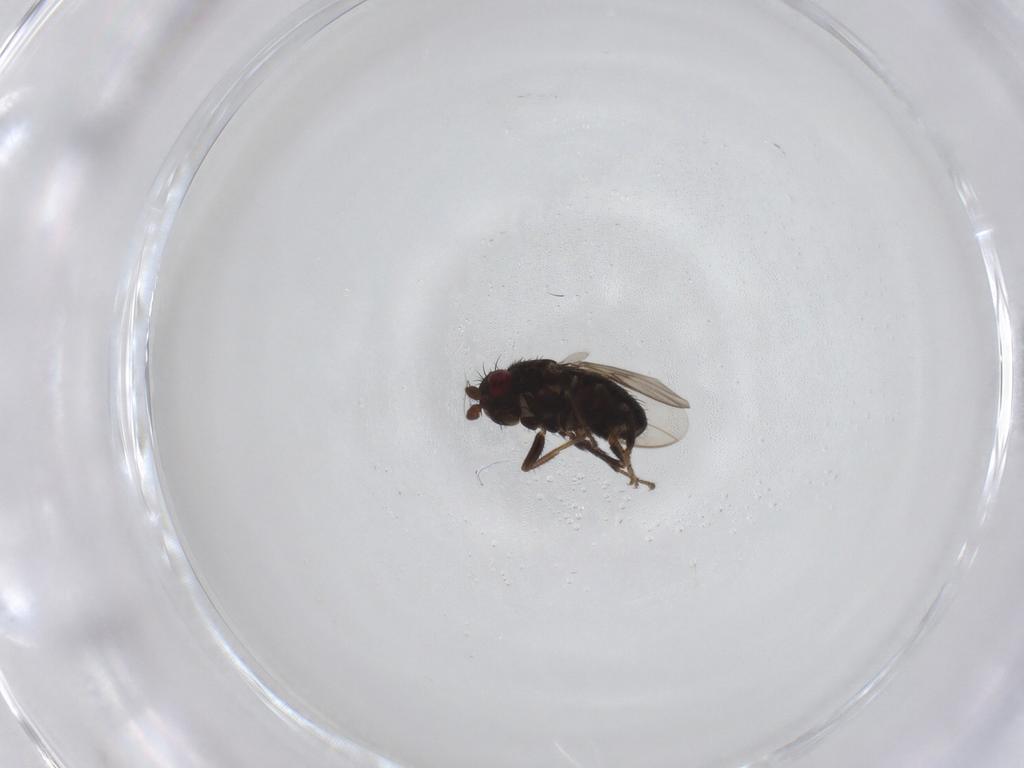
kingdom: Animalia
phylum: Arthropoda
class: Insecta
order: Diptera
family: Sphaeroceridae
